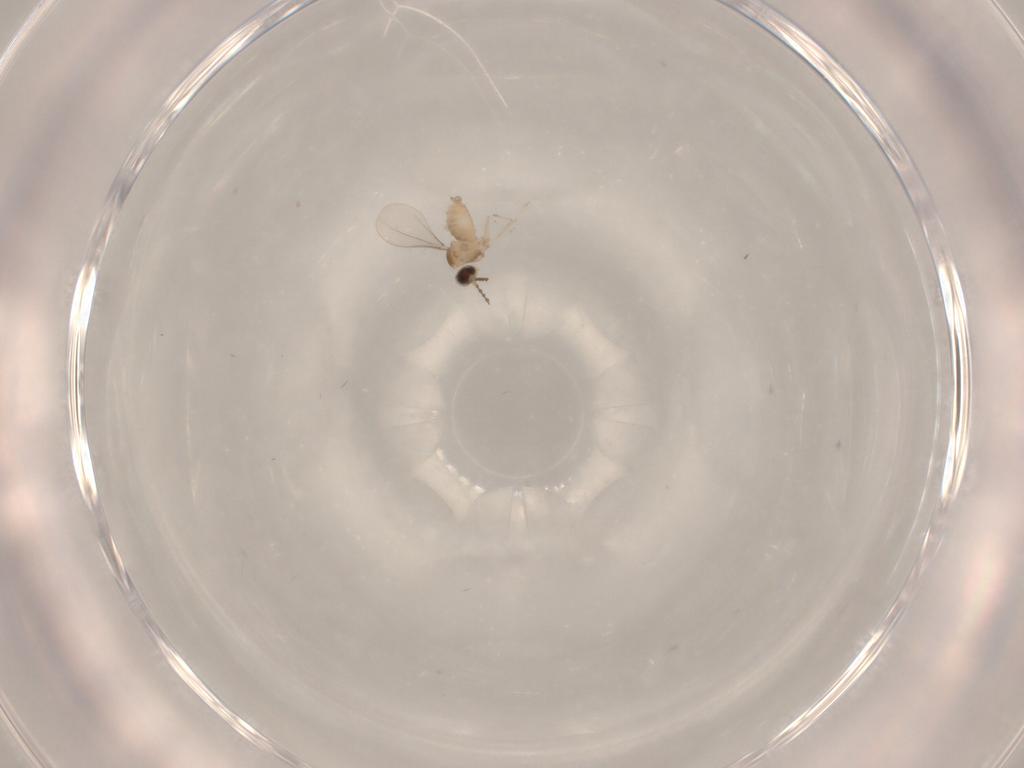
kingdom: Animalia
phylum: Arthropoda
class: Insecta
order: Diptera
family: Cecidomyiidae
